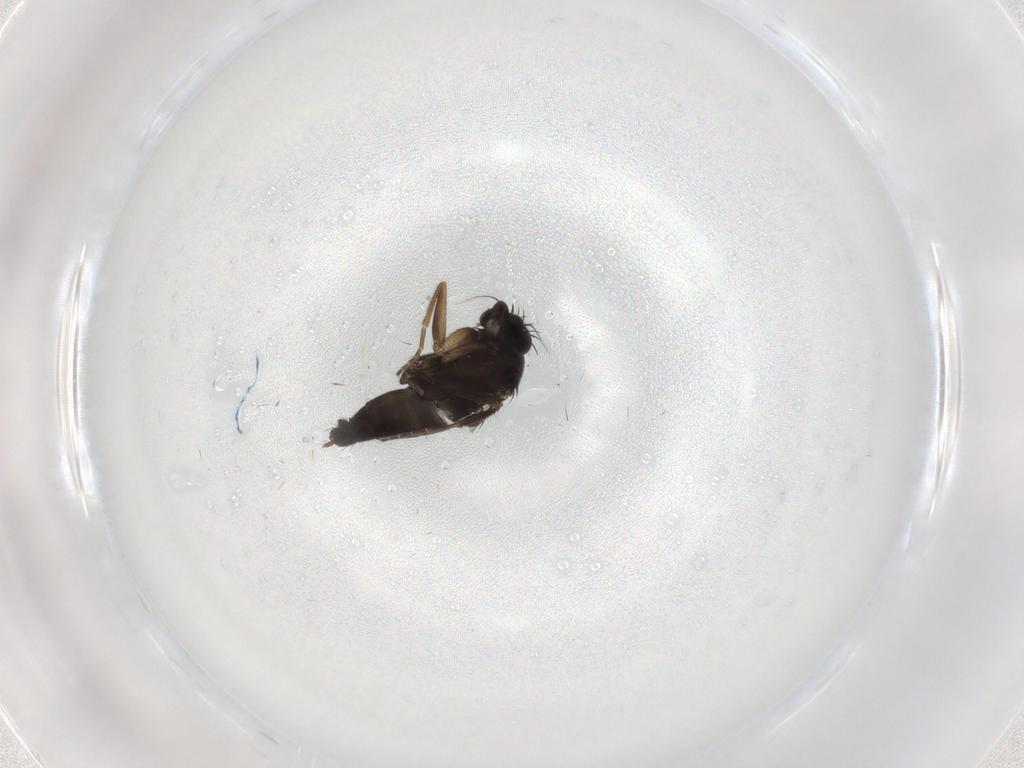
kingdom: Animalia
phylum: Arthropoda
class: Insecta
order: Diptera
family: Phoridae
